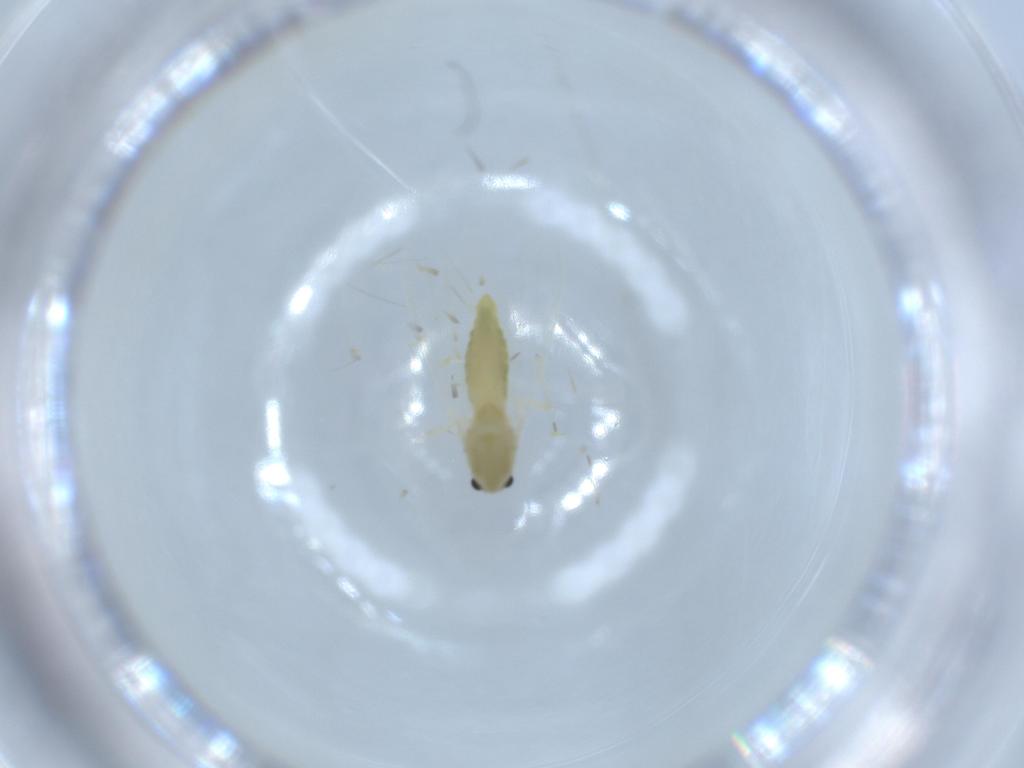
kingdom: Animalia
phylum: Arthropoda
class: Insecta
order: Diptera
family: Chironomidae
